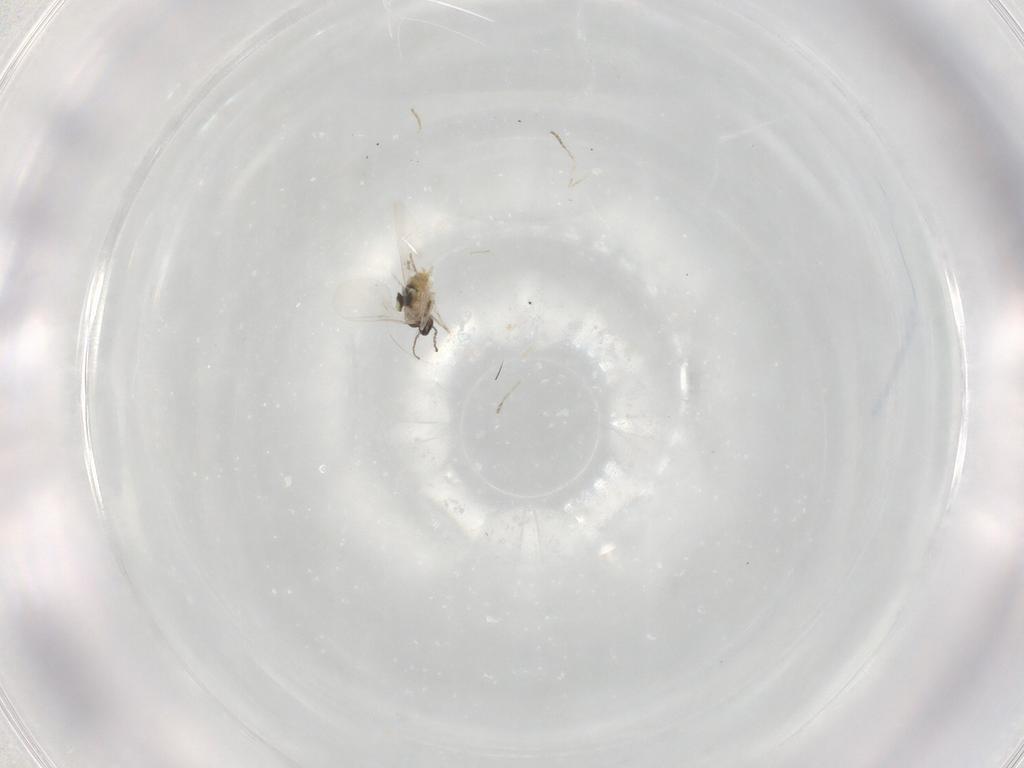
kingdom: Animalia
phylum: Arthropoda
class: Insecta
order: Diptera
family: Cecidomyiidae
